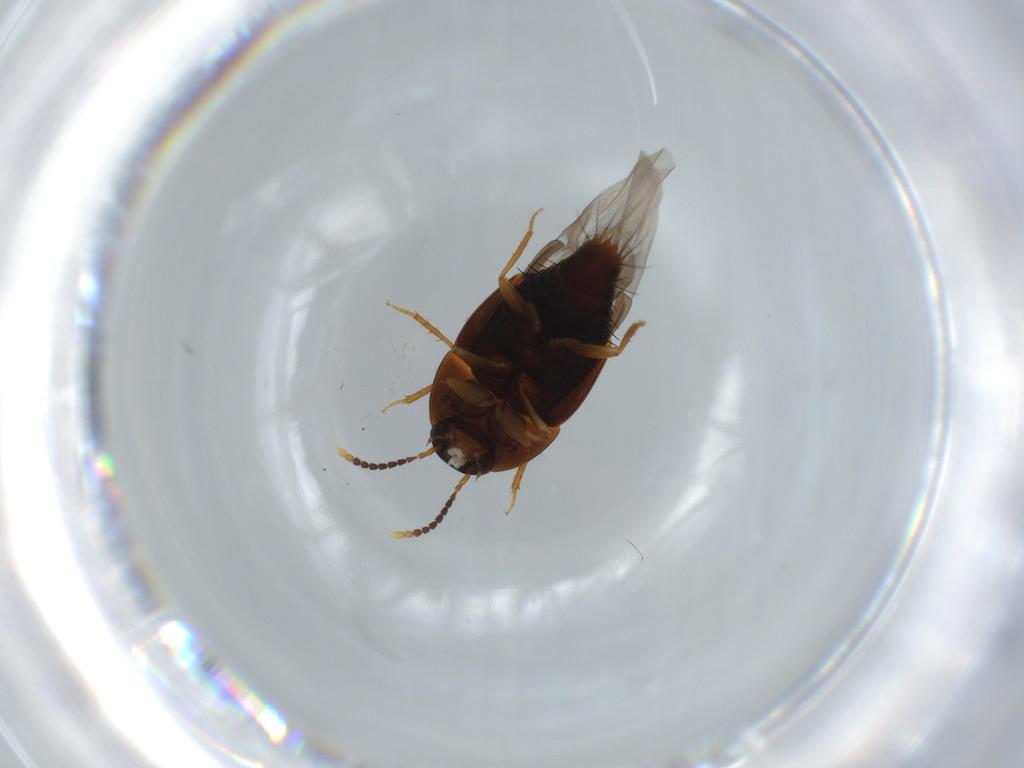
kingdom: Animalia
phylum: Arthropoda
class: Insecta
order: Coleoptera
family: Staphylinidae
